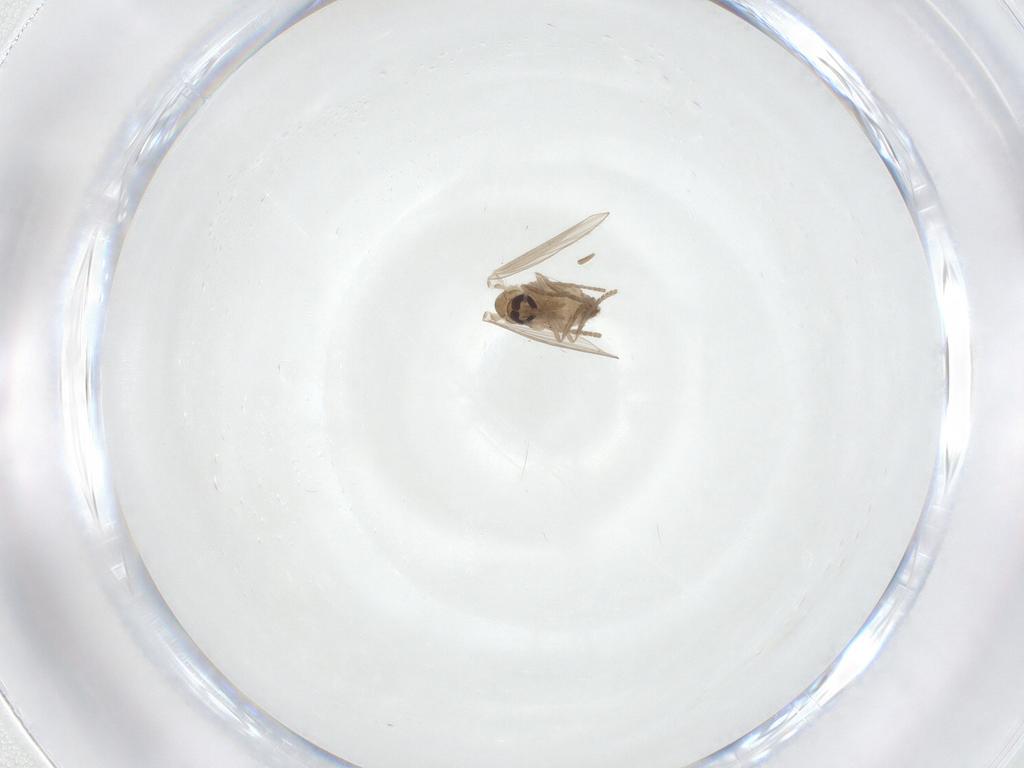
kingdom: Animalia
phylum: Arthropoda
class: Insecta
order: Diptera
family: Phoridae
